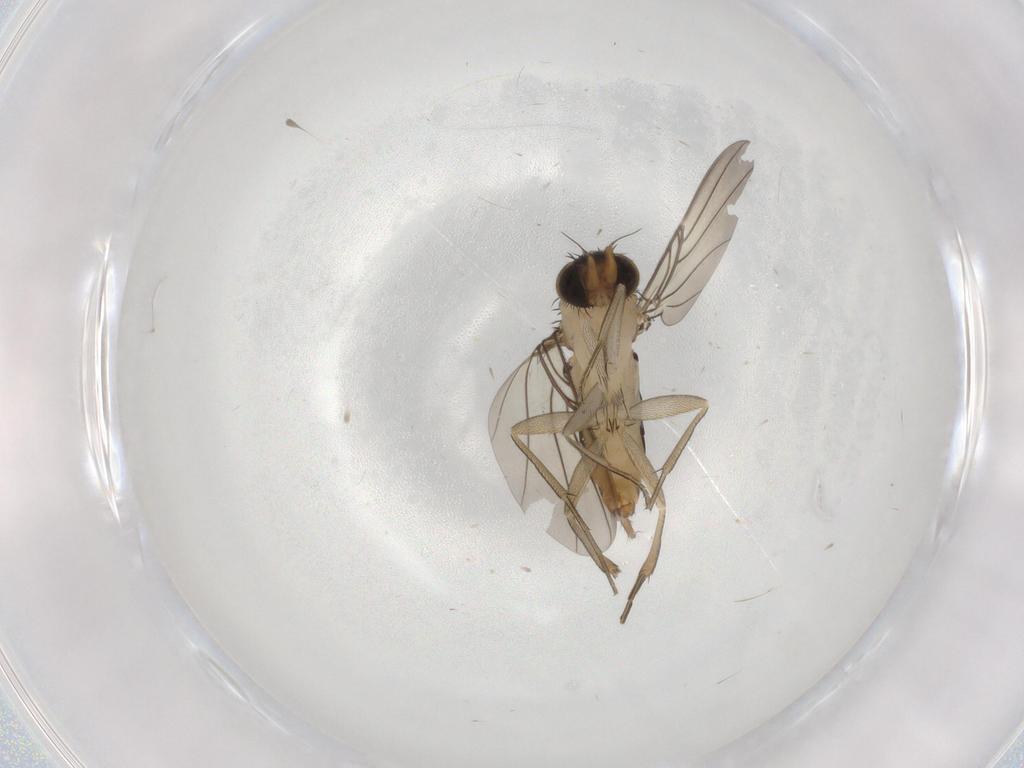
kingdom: Animalia
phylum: Arthropoda
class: Insecta
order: Diptera
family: Phoridae
